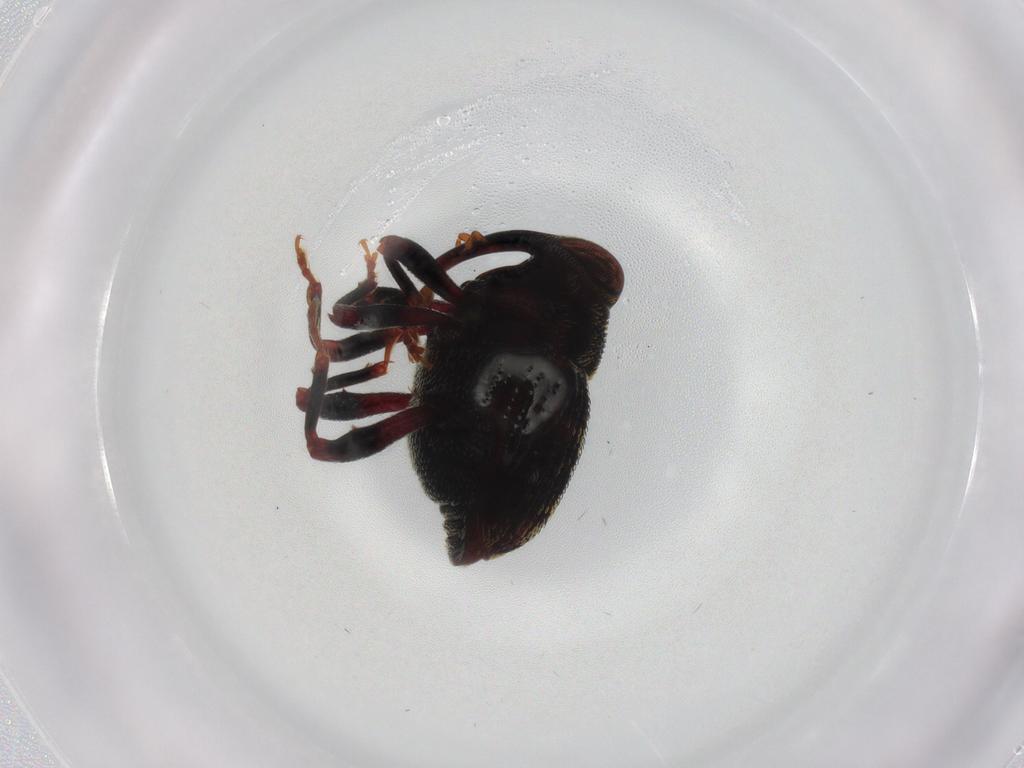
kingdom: Animalia
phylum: Arthropoda
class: Insecta
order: Coleoptera
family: Curculionidae
